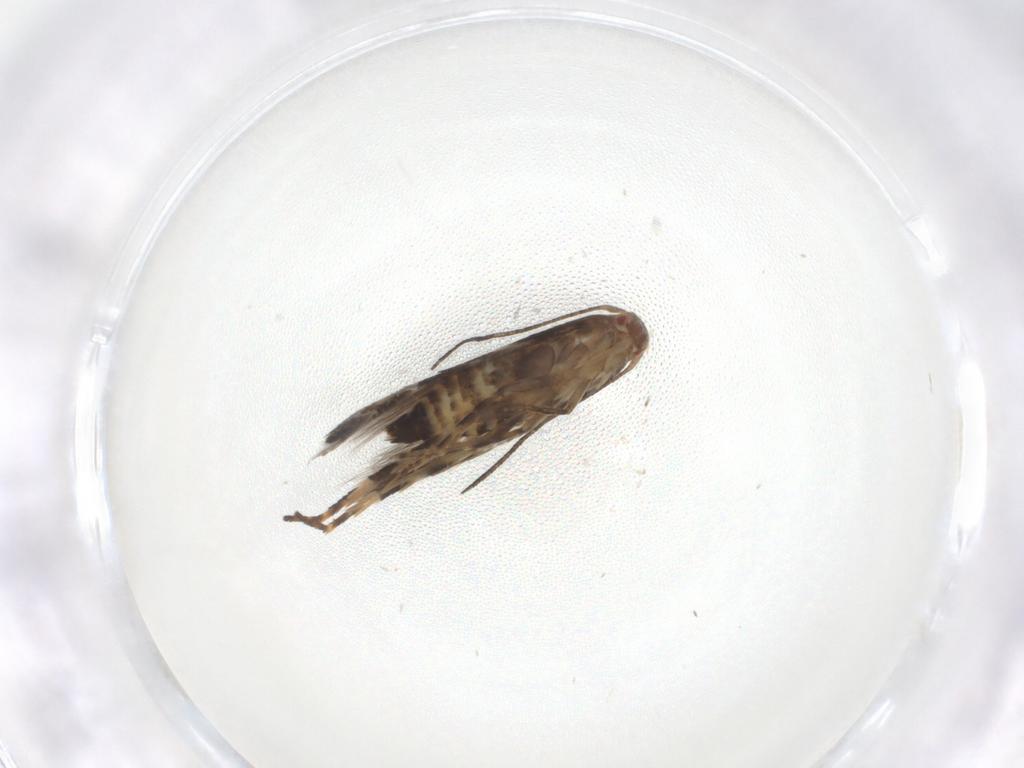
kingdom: Animalia
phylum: Arthropoda
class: Insecta
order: Lepidoptera
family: Momphidae
